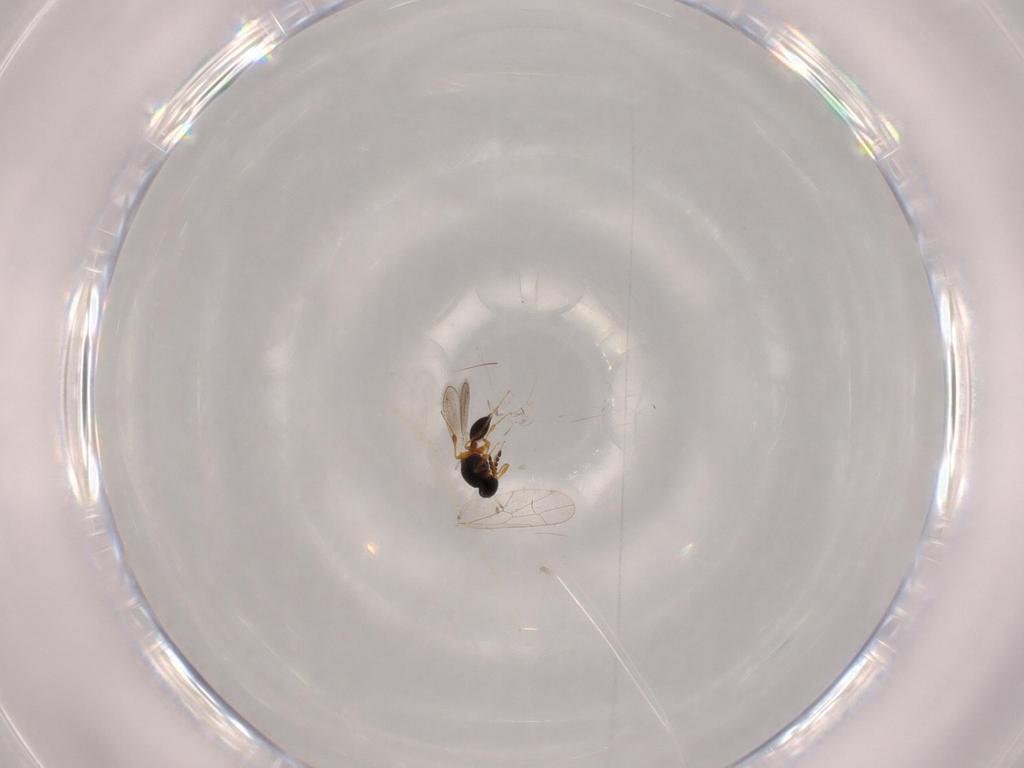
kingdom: Animalia
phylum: Arthropoda
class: Insecta
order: Hymenoptera
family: Platygastridae
